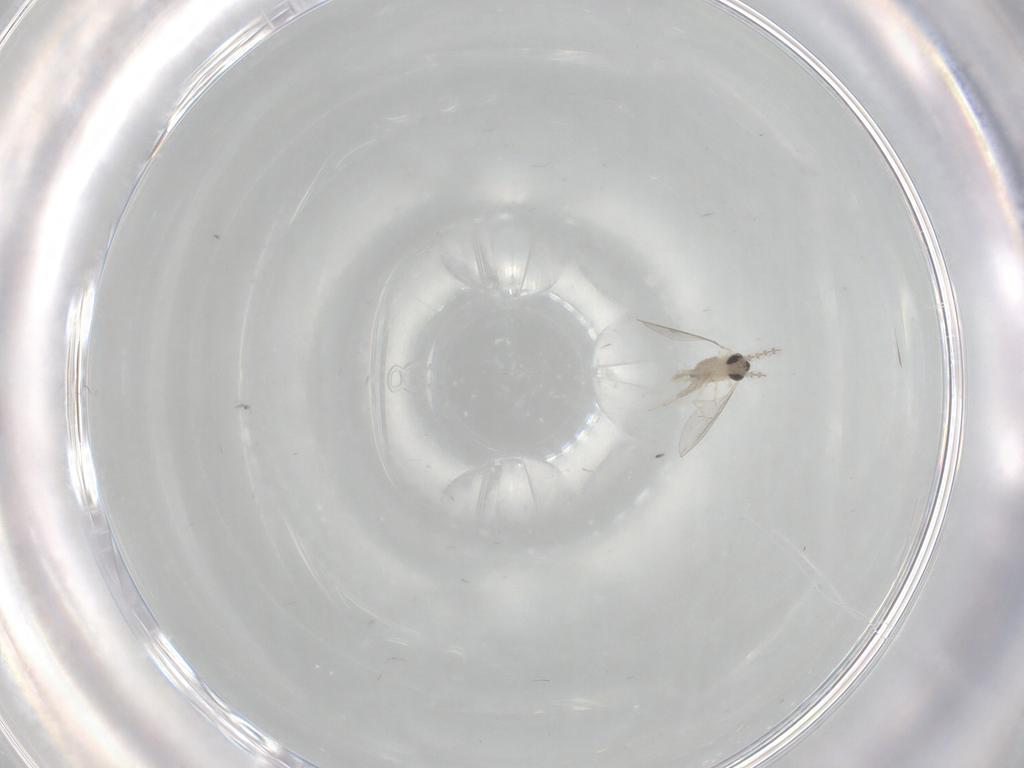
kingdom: Animalia
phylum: Arthropoda
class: Insecta
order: Diptera
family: Cecidomyiidae
